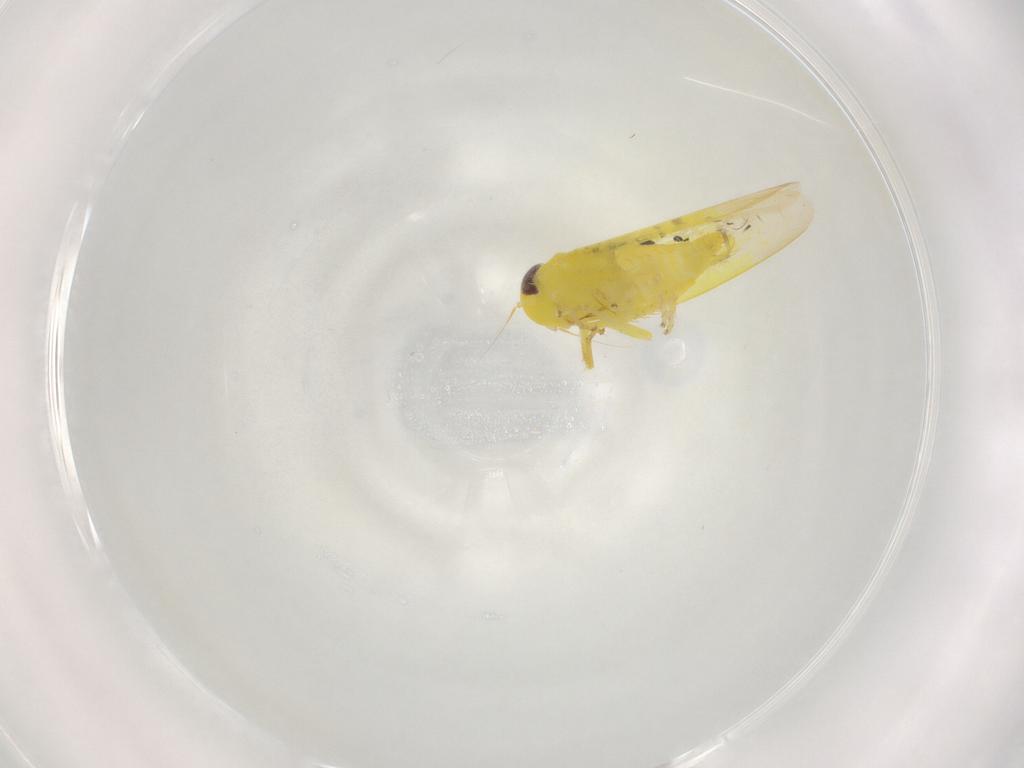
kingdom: Animalia
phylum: Arthropoda
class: Insecta
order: Hemiptera
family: Cicadellidae
